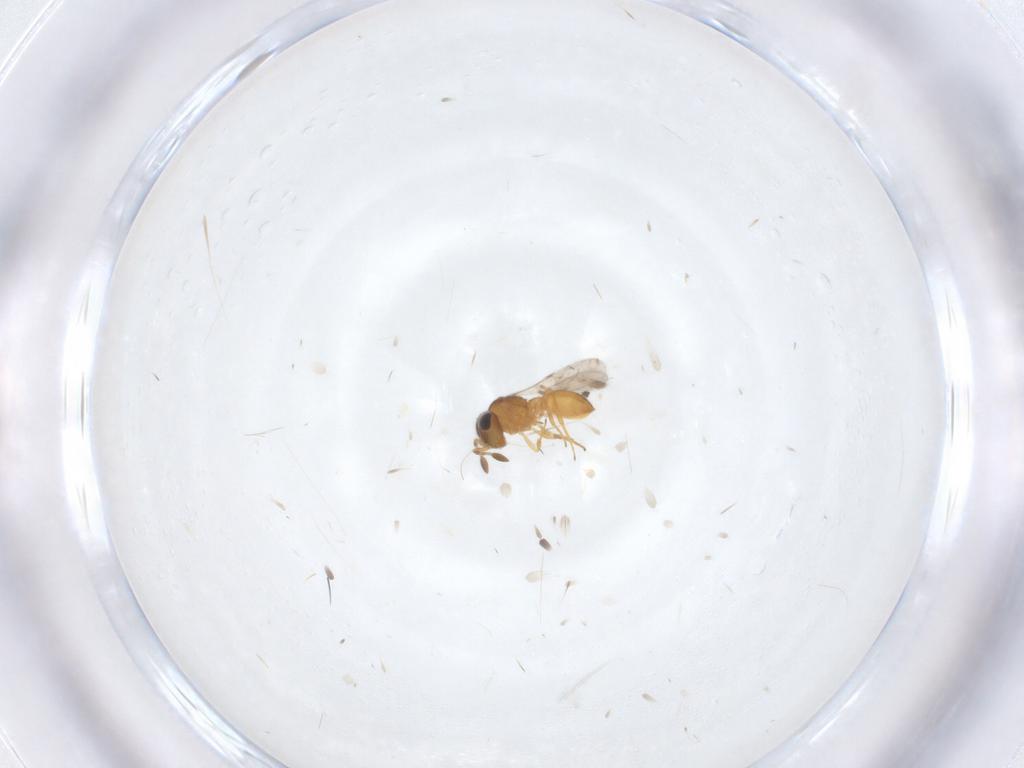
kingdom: Animalia
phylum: Arthropoda
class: Insecta
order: Hymenoptera
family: Scelionidae
